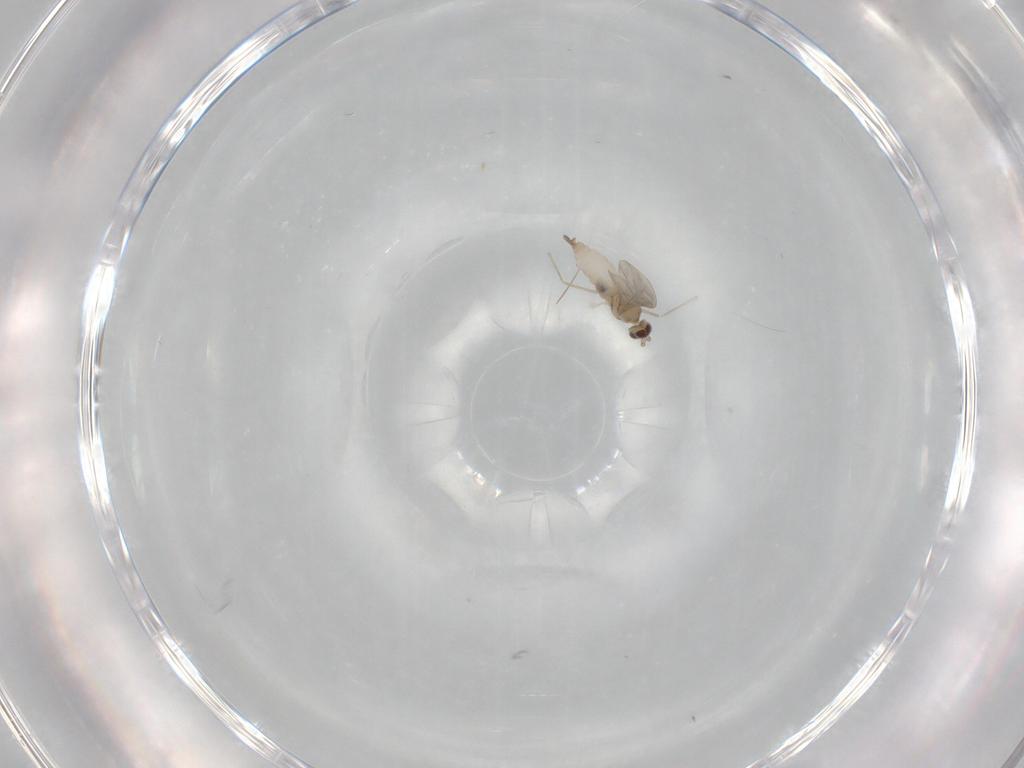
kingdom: Animalia
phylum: Arthropoda
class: Insecta
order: Diptera
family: Cecidomyiidae
